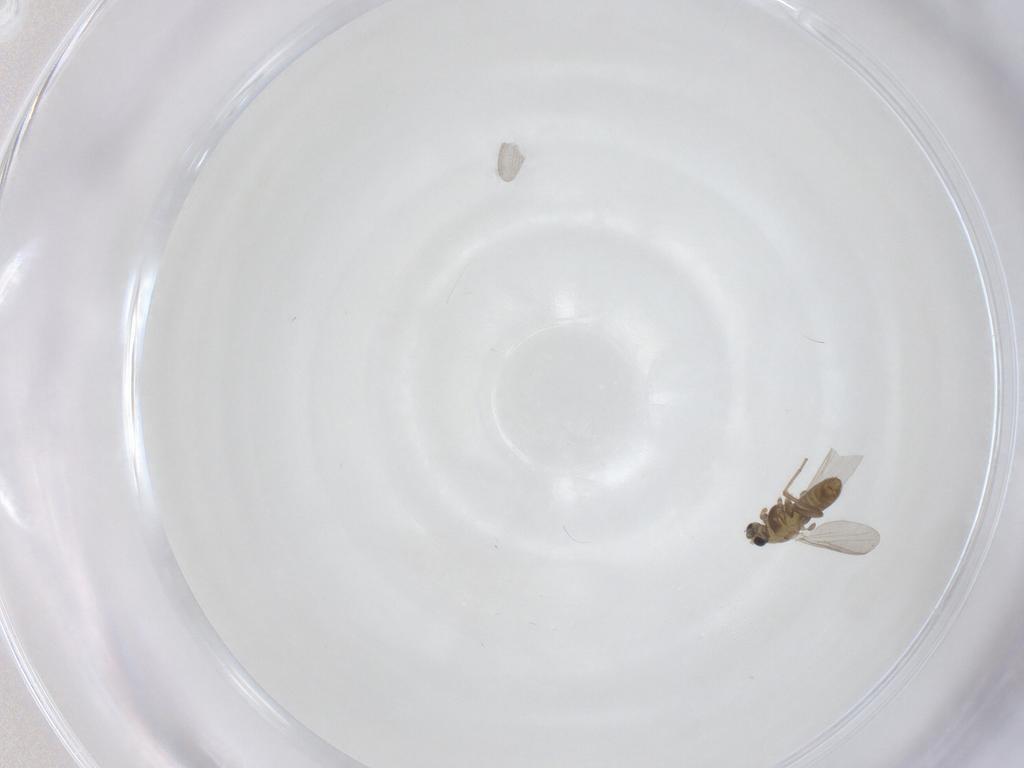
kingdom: Animalia
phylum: Arthropoda
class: Insecta
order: Diptera
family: Chironomidae
